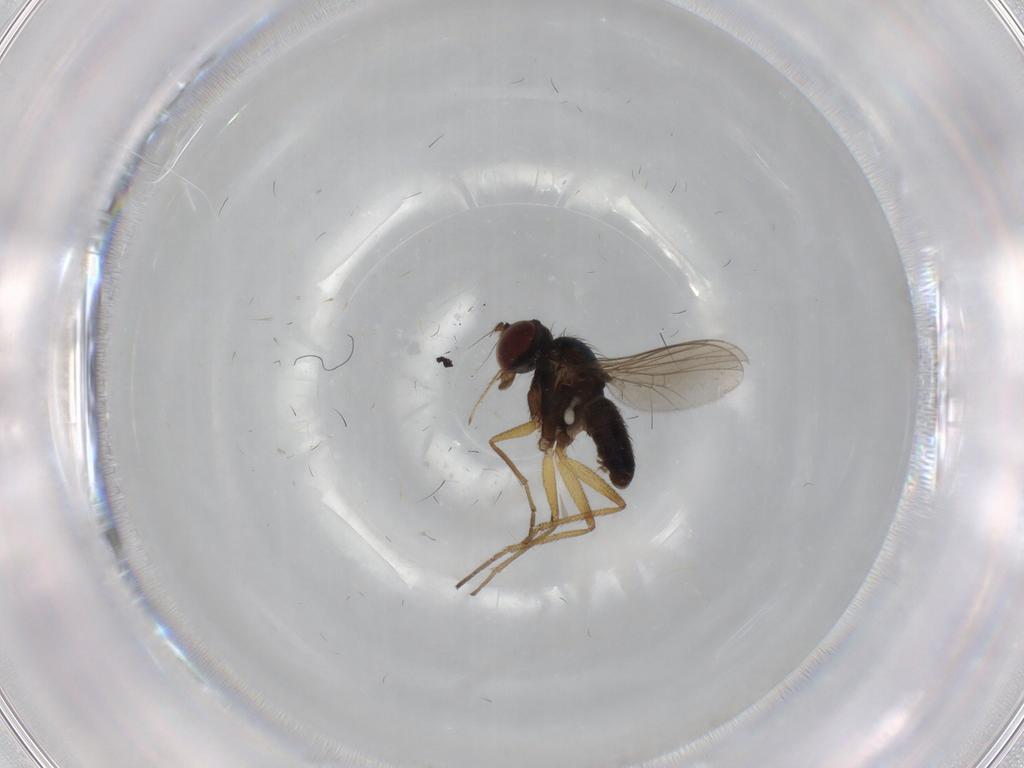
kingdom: Animalia
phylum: Arthropoda
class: Insecta
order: Diptera
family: Dolichopodidae
